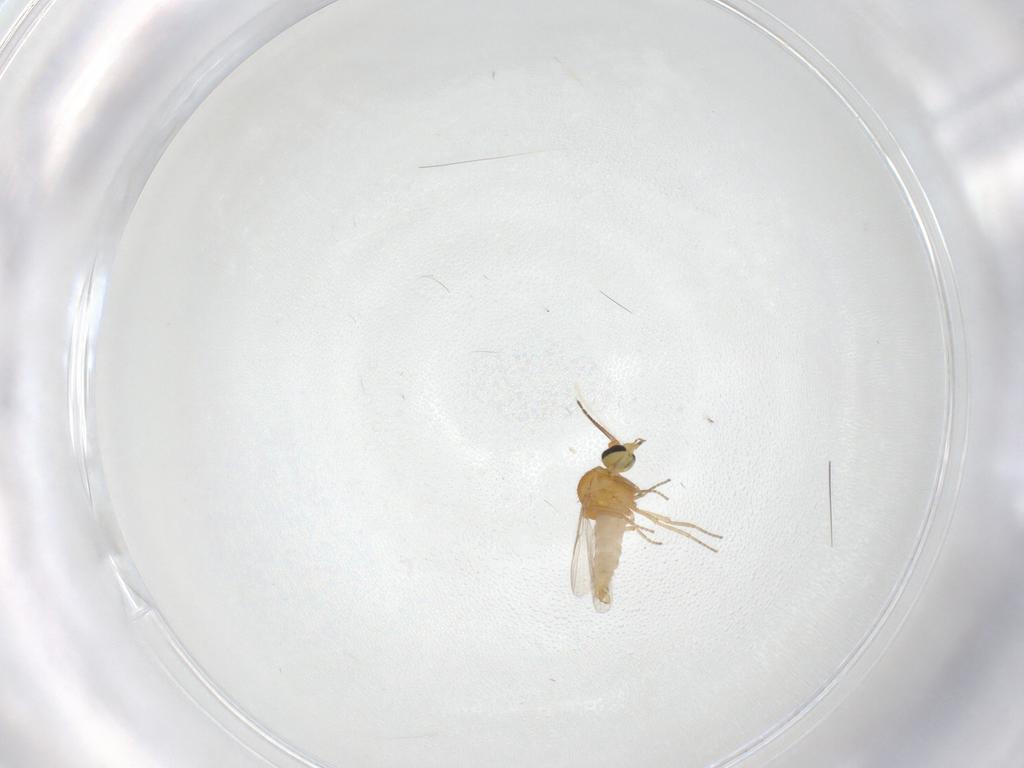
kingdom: Animalia
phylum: Arthropoda
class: Insecta
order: Diptera
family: Ceratopogonidae
